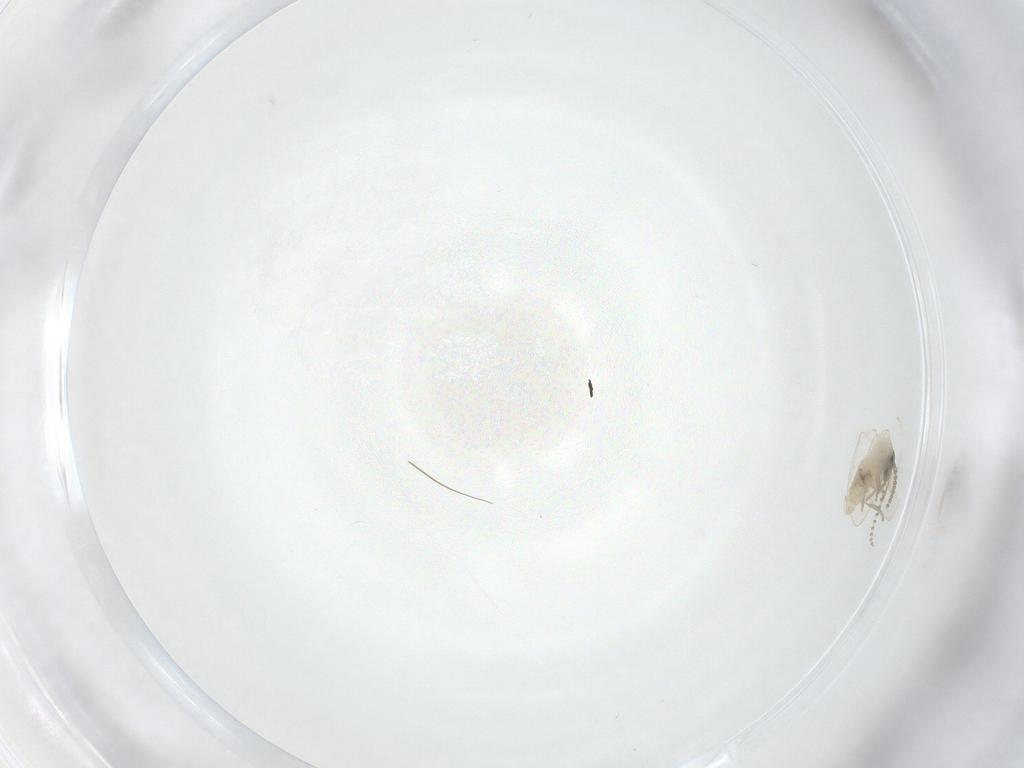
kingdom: Animalia
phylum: Arthropoda
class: Insecta
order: Diptera
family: Psychodidae
